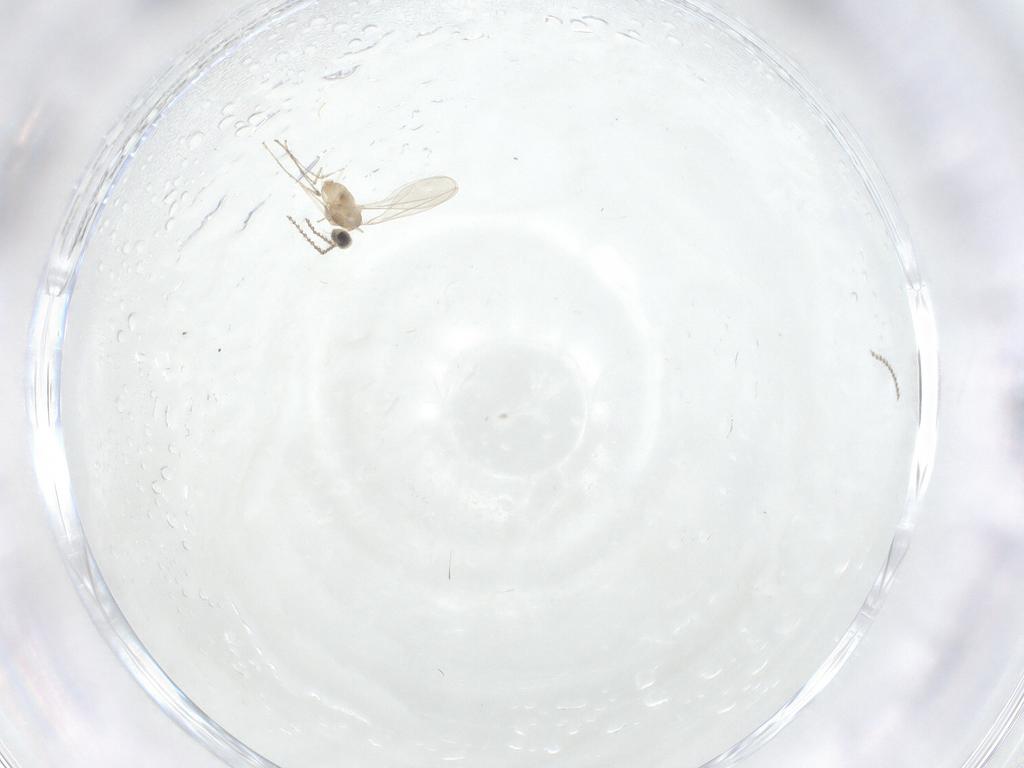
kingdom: Animalia
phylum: Arthropoda
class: Insecta
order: Diptera
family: Psychodidae
